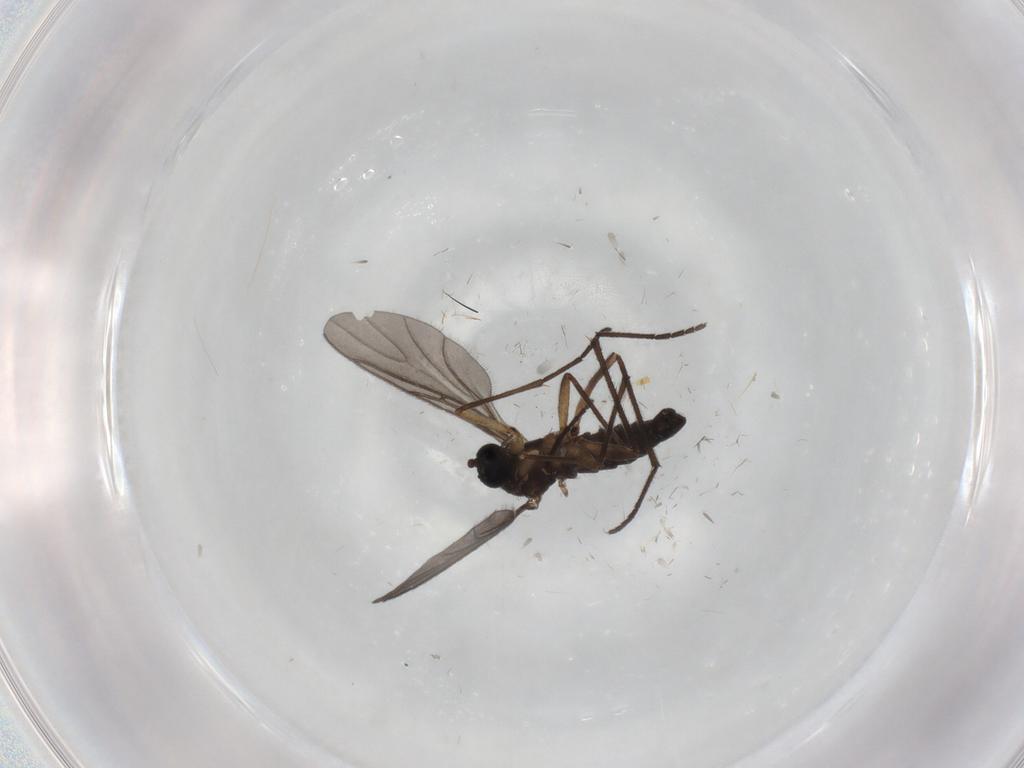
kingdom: Animalia
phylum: Arthropoda
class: Insecta
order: Diptera
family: Sciaridae
